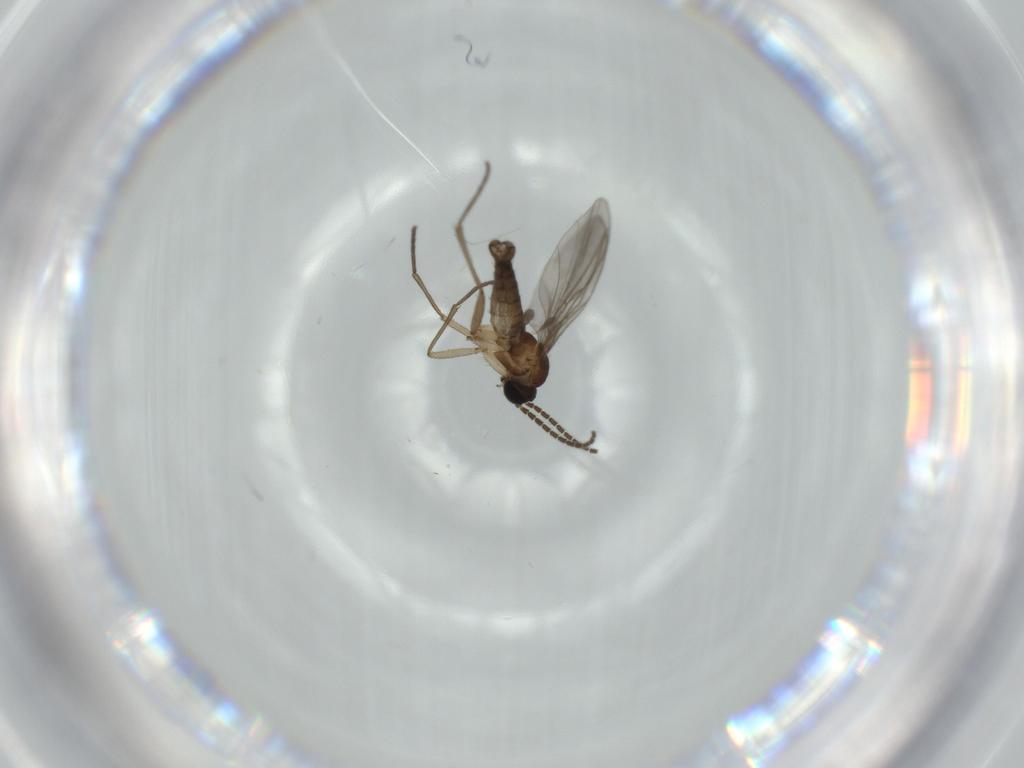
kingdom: Animalia
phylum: Arthropoda
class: Insecta
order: Diptera
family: Sciaridae
